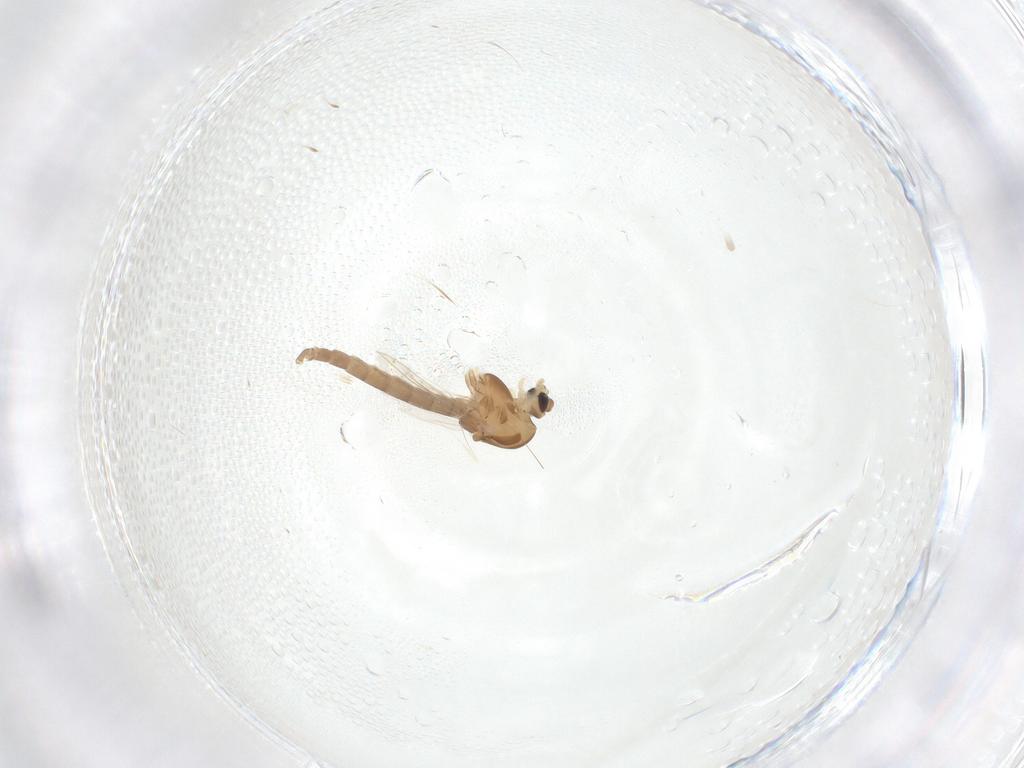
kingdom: Animalia
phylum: Arthropoda
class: Insecta
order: Diptera
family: Chironomidae
